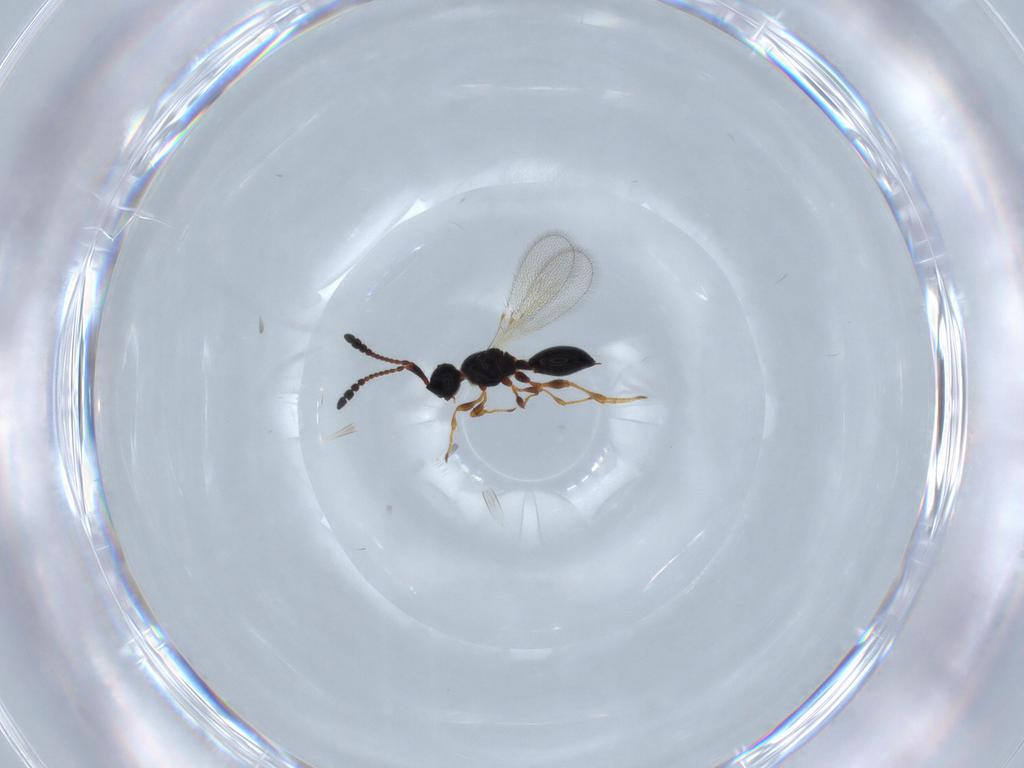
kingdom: Animalia
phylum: Arthropoda
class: Insecta
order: Hymenoptera
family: Diapriidae
